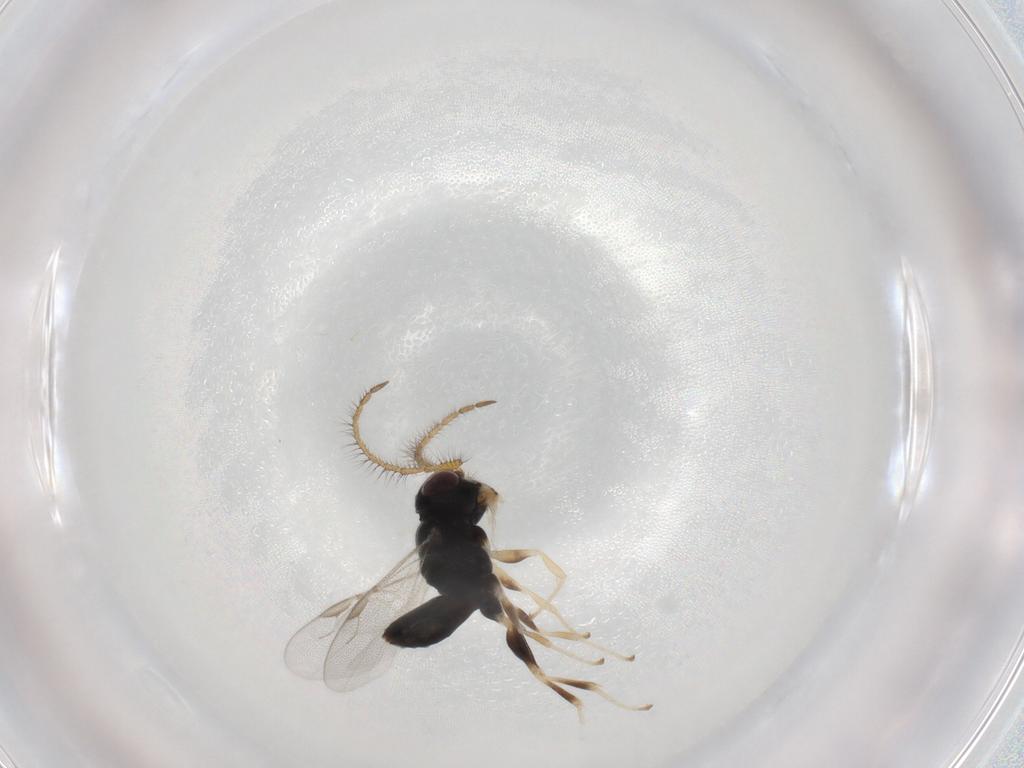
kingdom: Animalia
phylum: Arthropoda
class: Insecta
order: Hymenoptera
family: Dryinidae
